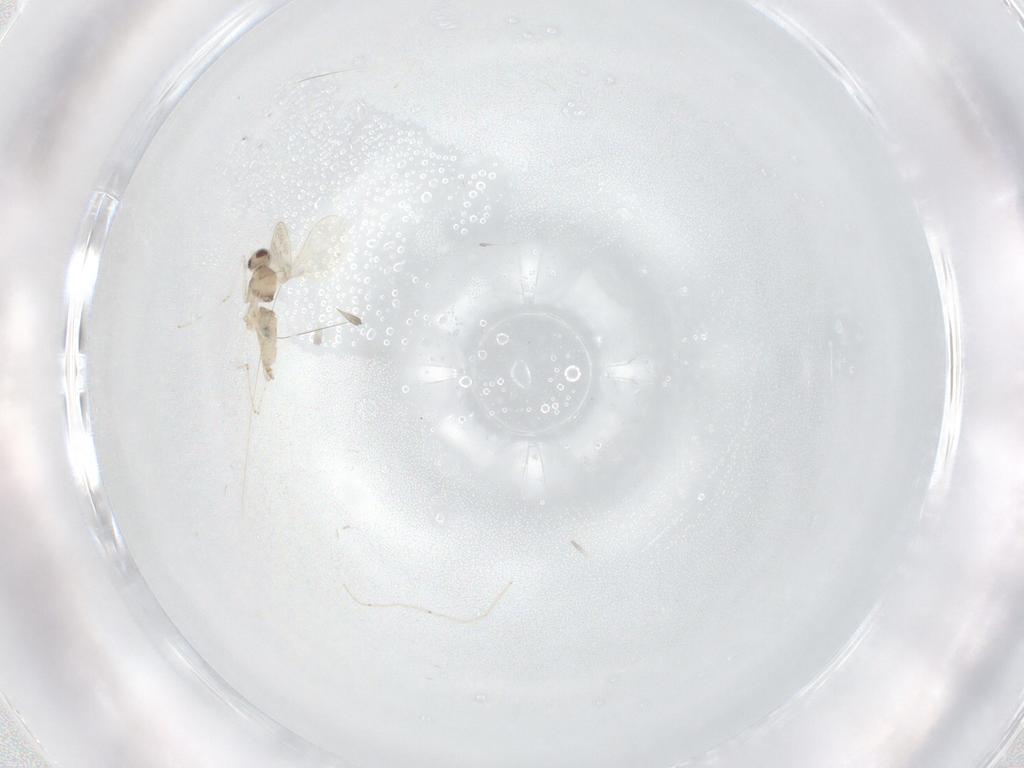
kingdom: Animalia
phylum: Arthropoda
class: Insecta
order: Diptera
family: Cecidomyiidae
